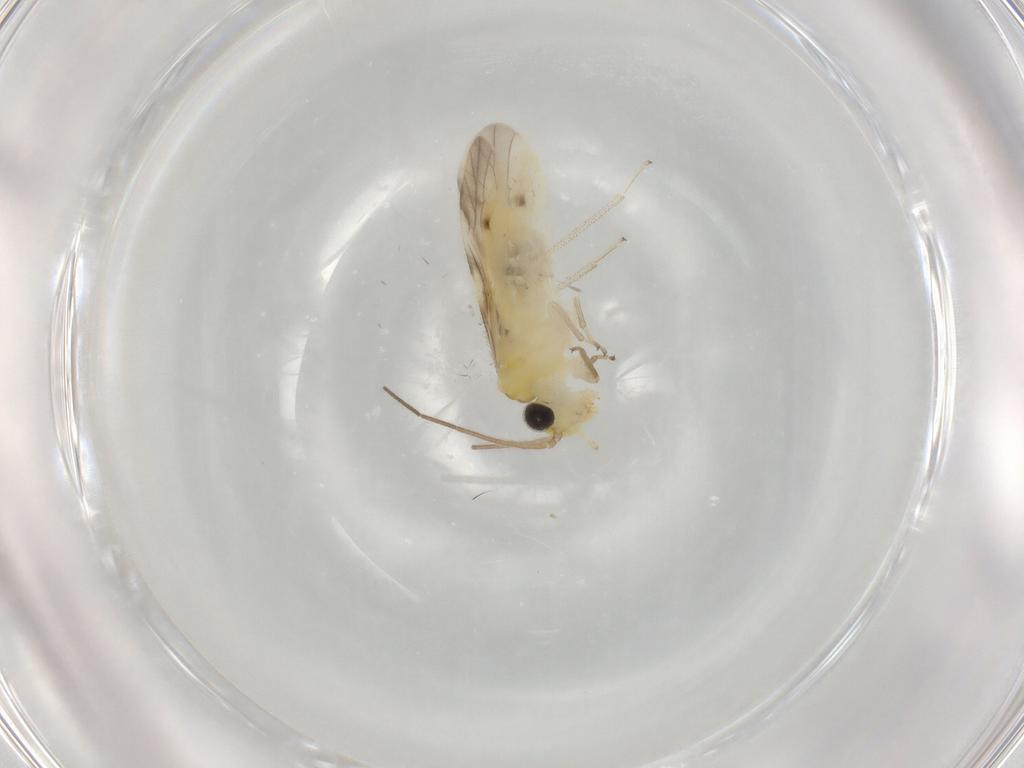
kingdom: Animalia
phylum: Arthropoda
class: Insecta
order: Psocodea
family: Caeciliusidae
